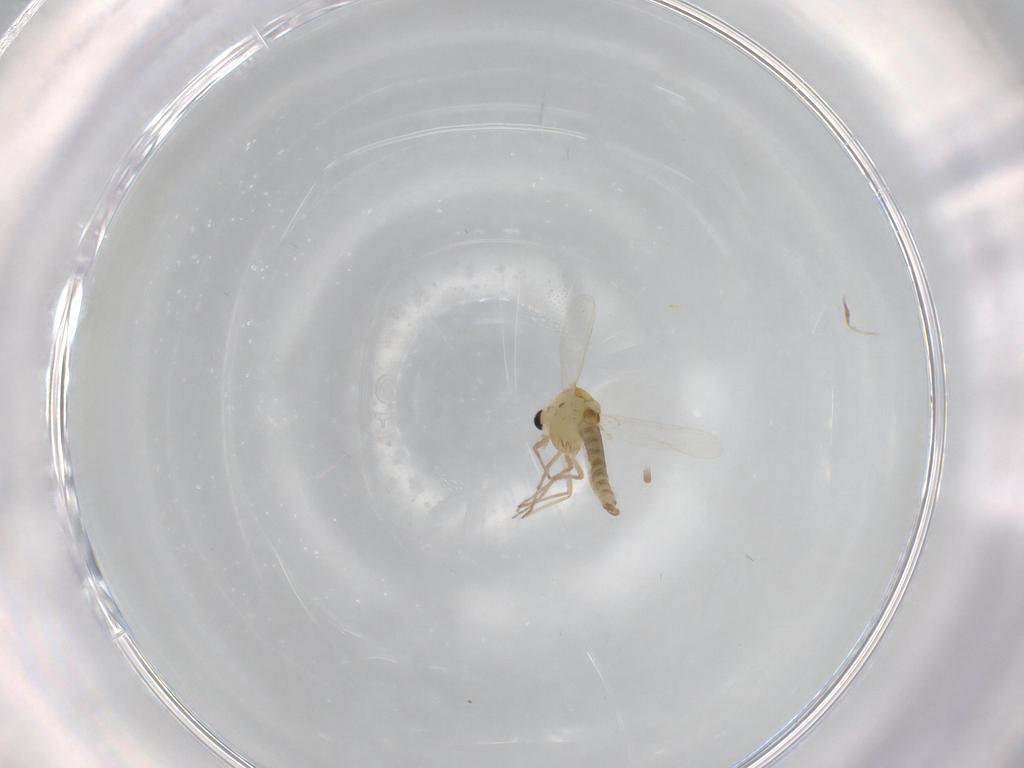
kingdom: Animalia
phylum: Arthropoda
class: Insecta
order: Diptera
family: Chironomidae
